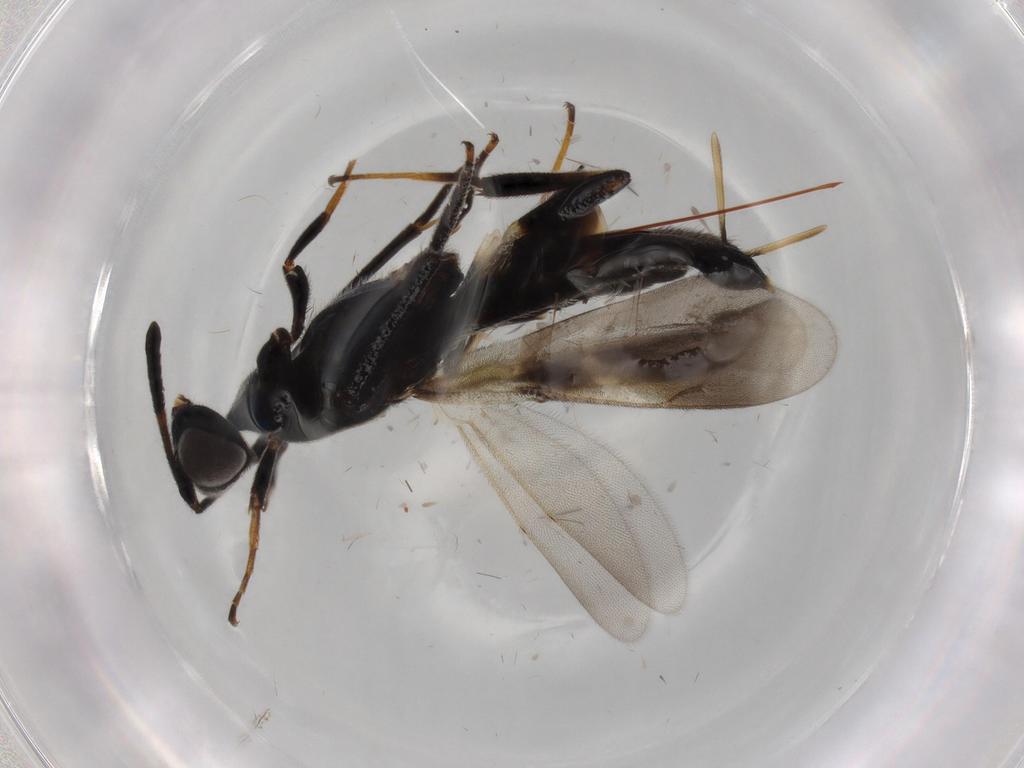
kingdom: Animalia
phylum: Arthropoda
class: Insecta
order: Hymenoptera
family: Eupelmidae
